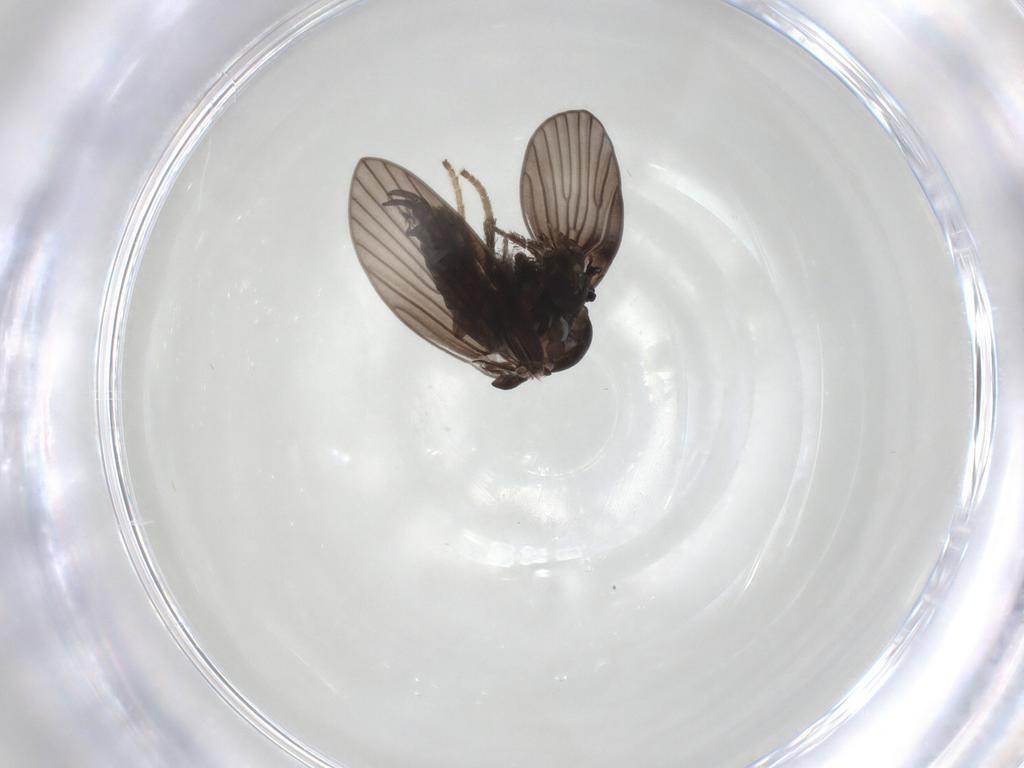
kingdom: Animalia
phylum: Arthropoda
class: Insecta
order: Diptera
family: Psychodidae
